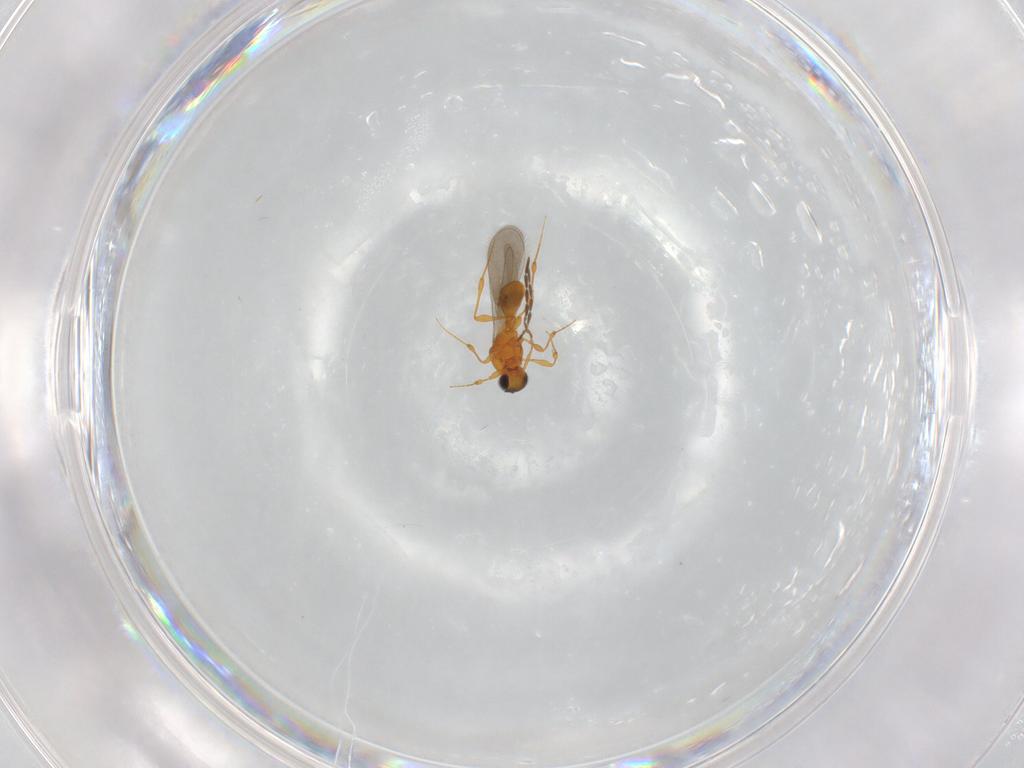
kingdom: Animalia
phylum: Arthropoda
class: Insecta
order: Hymenoptera
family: Platygastridae
